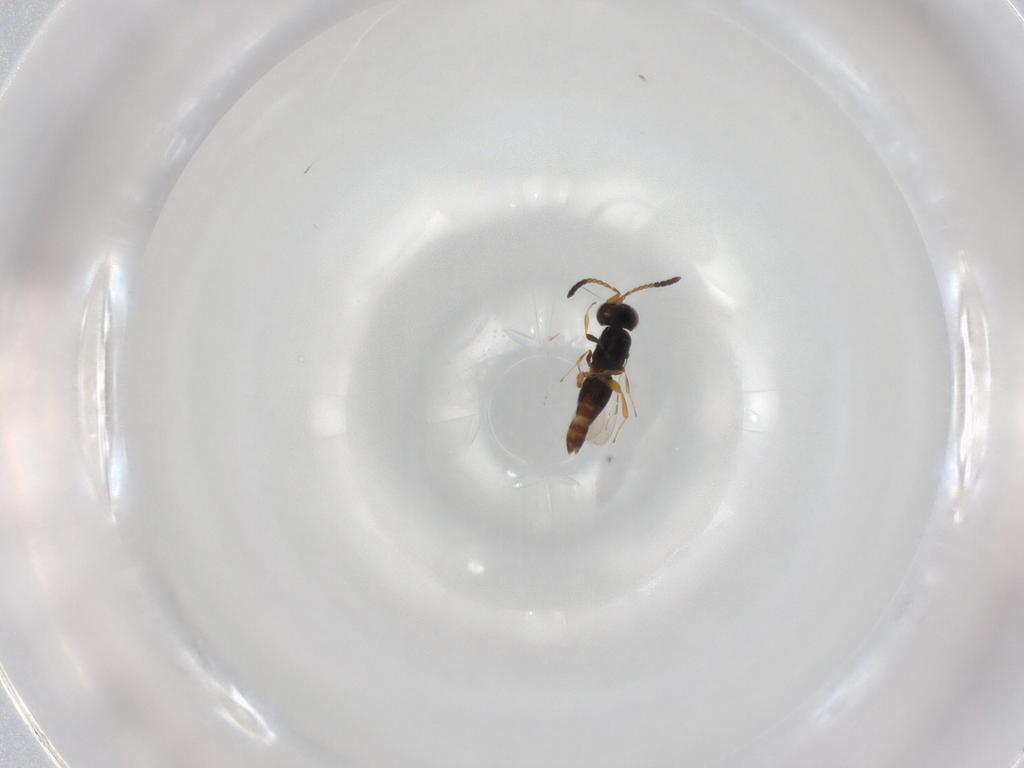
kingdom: Animalia
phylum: Arthropoda
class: Insecta
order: Hymenoptera
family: Ceraphronidae
